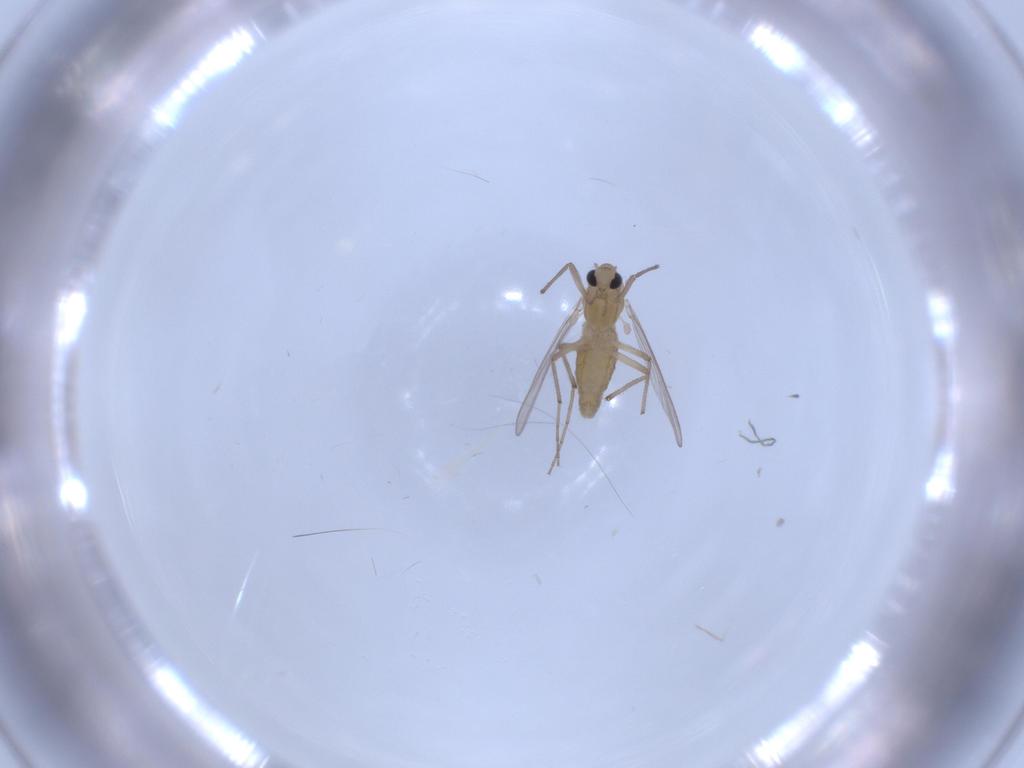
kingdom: Animalia
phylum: Arthropoda
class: Insecta
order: Diptera
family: Chironomidae
